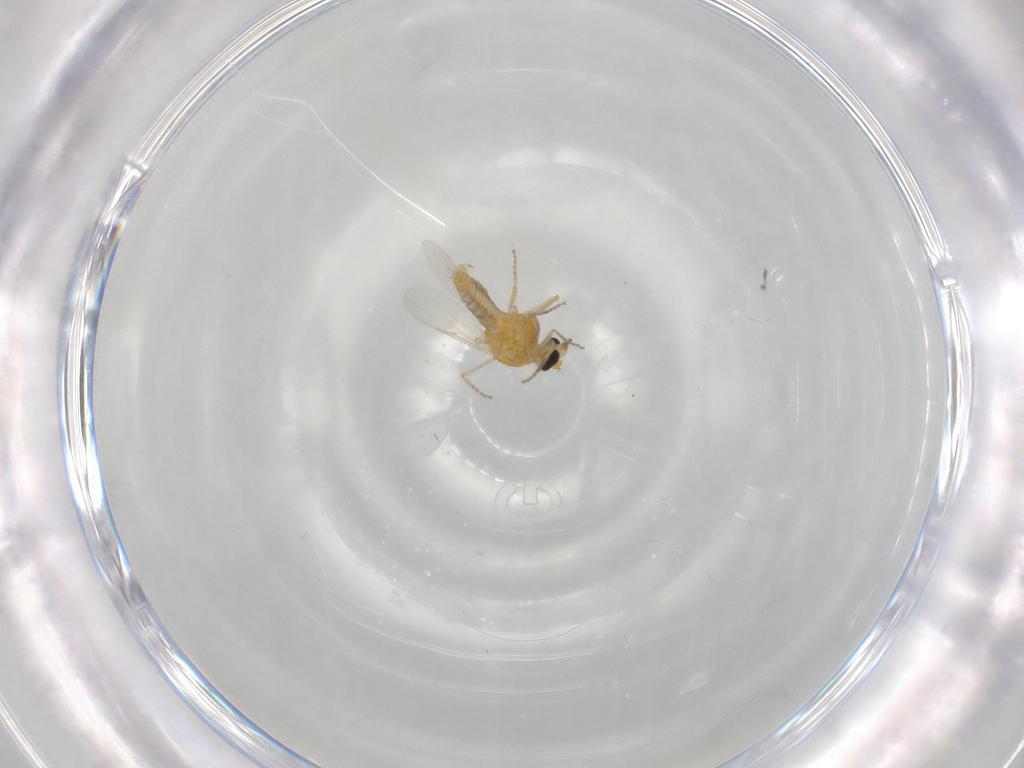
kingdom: Animalia
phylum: Arthropoda
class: Insecta
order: Diptera
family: Ceratopogonidae
